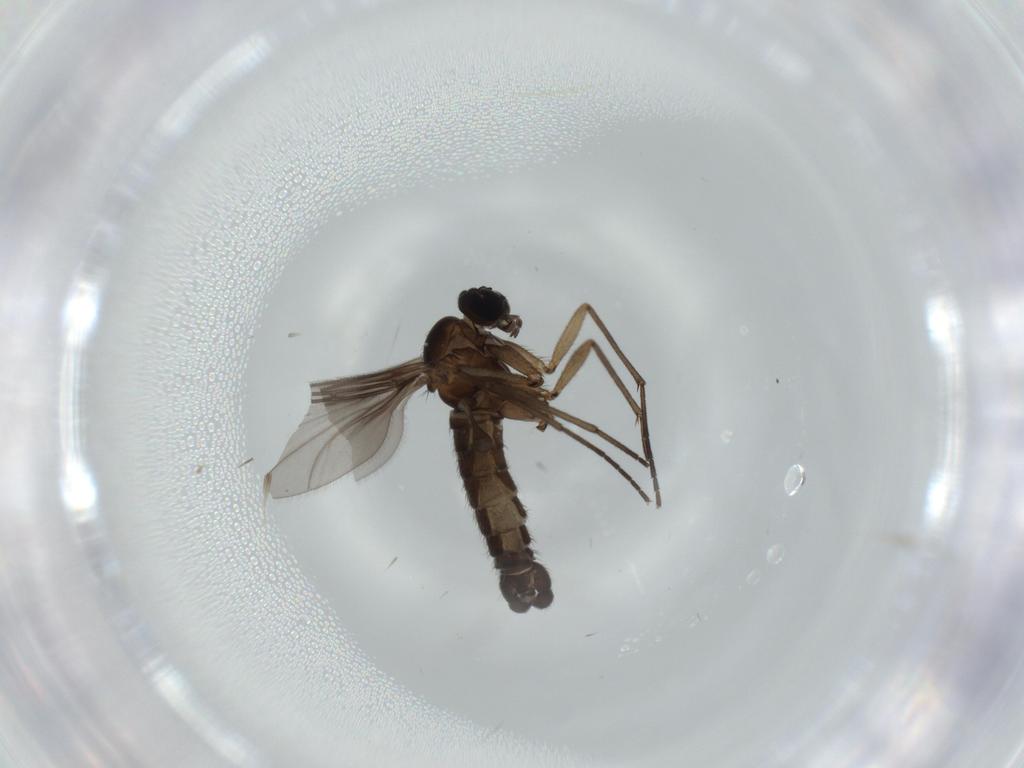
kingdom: Animalia
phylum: Arthropoda
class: Insecta
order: Diptera
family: Sciaridae
